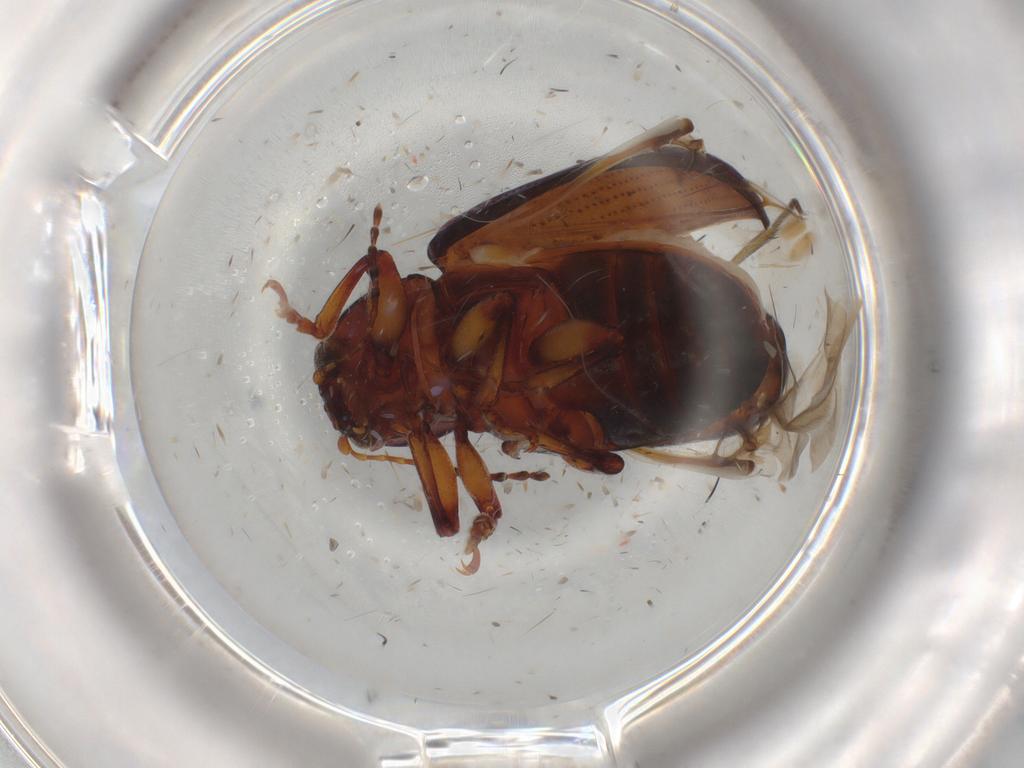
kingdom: Animalia
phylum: Arthropoda
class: Insecta
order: Coleoptera
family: Chrysomelidae
